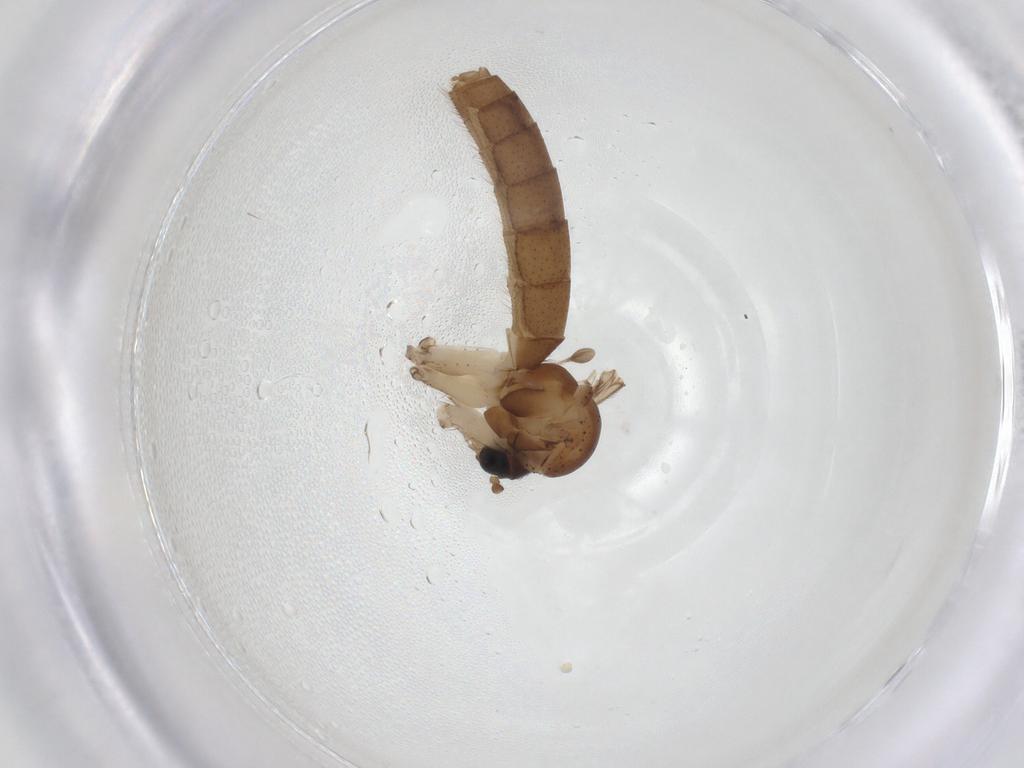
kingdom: Animalia
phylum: Arthropoda
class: Insecta
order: Diptera
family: Mycetophilidae
